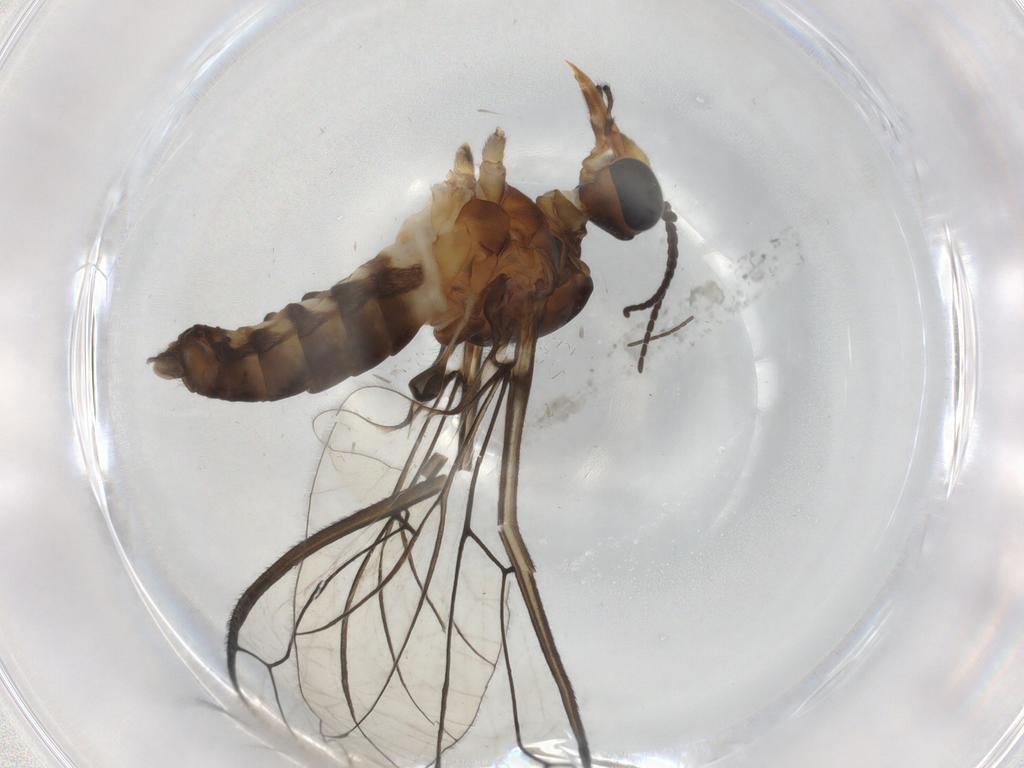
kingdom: Animalia
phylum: Arthropoda
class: Insecta
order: Diptera
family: Blephariceridae
